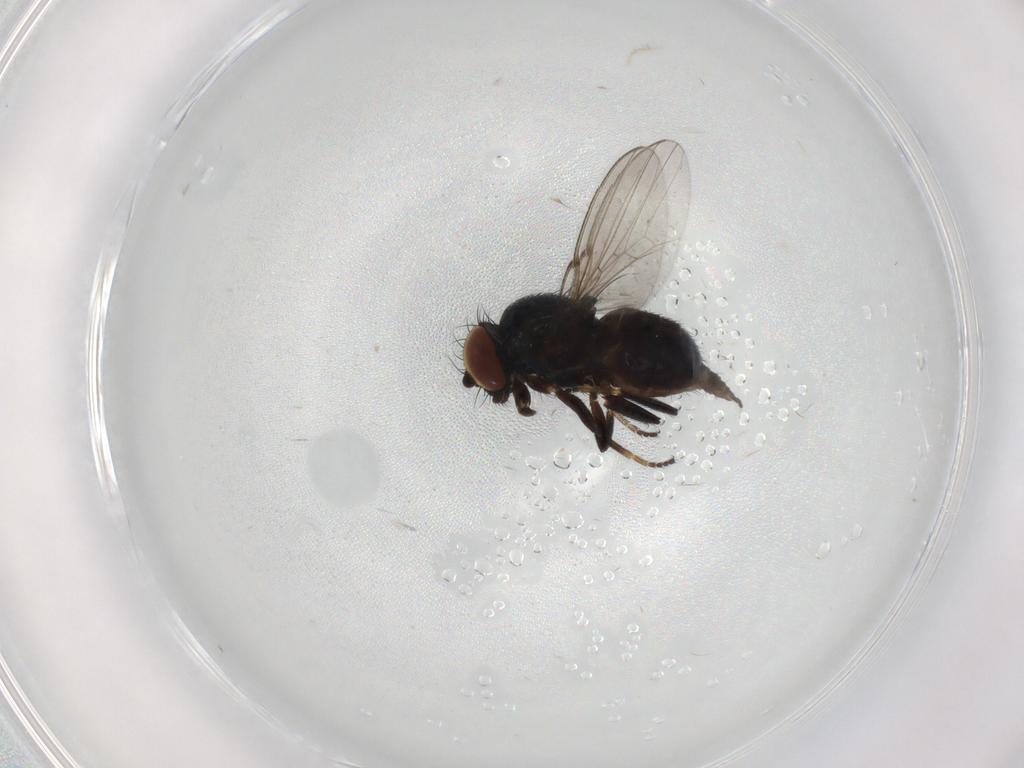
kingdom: Animalia
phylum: Arthropoda
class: Insecta
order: Diptera
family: Milichiidae
